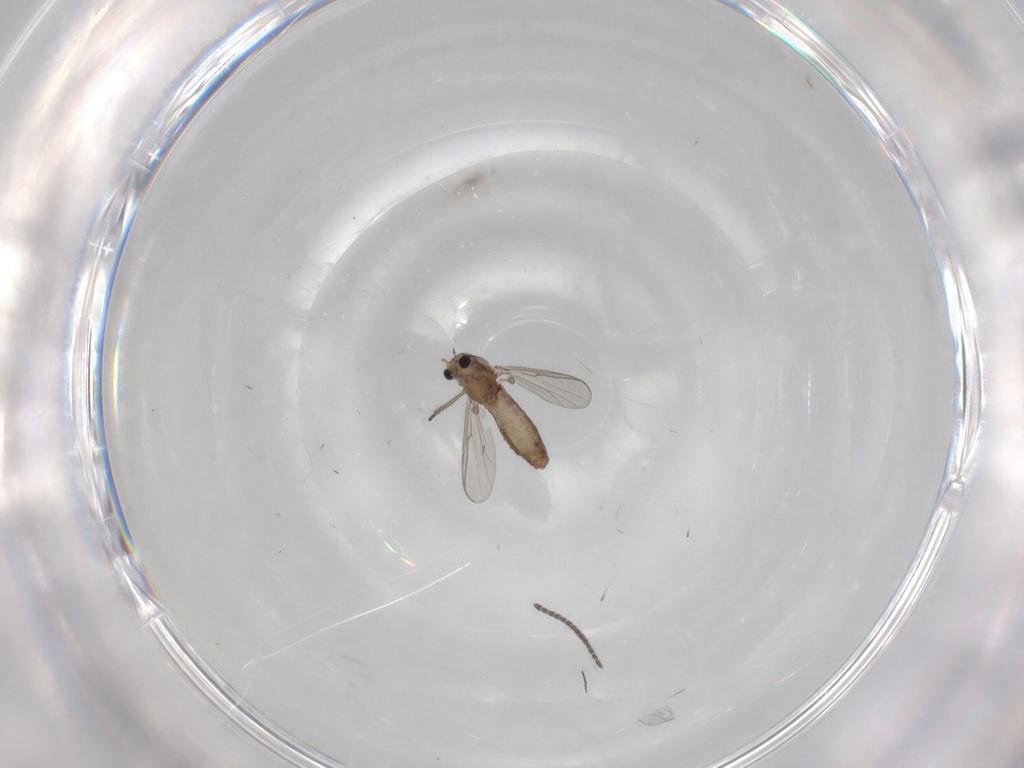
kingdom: Animalia
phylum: Arthropoda
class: Insecta
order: Diptera
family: Chironomidae
